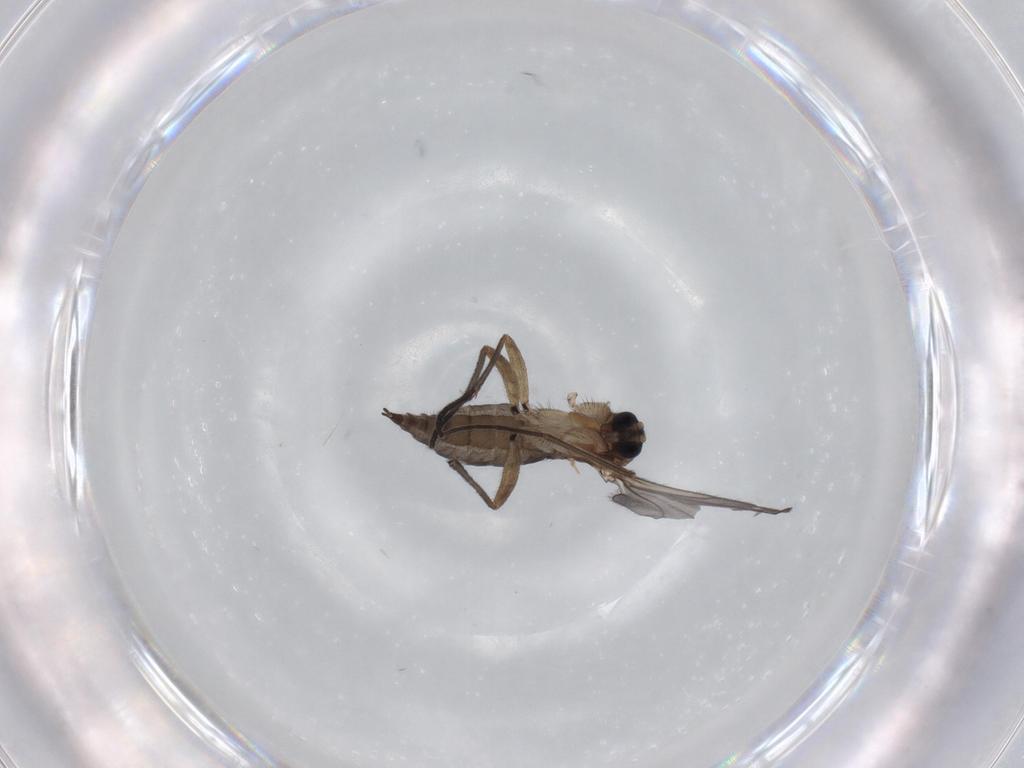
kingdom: Animalia
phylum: Arthropoda
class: Insecta
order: Diptera
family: Sciaridae
